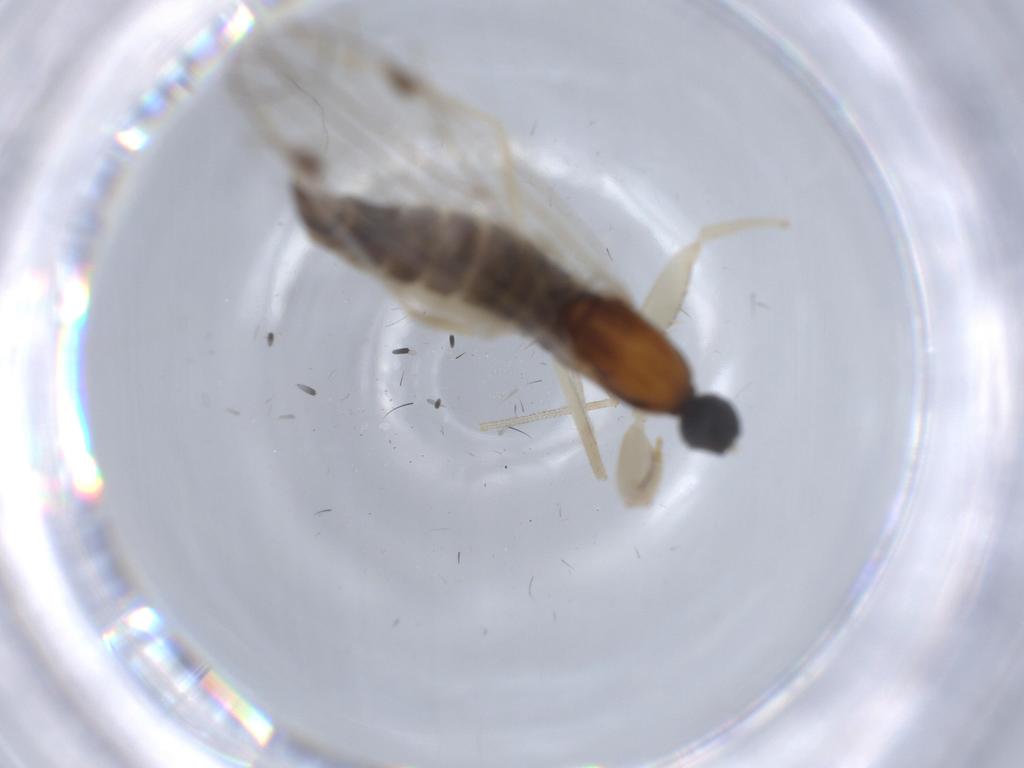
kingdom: Animalia
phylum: Arthropoda
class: Insecta
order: Diptera
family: Empididae
